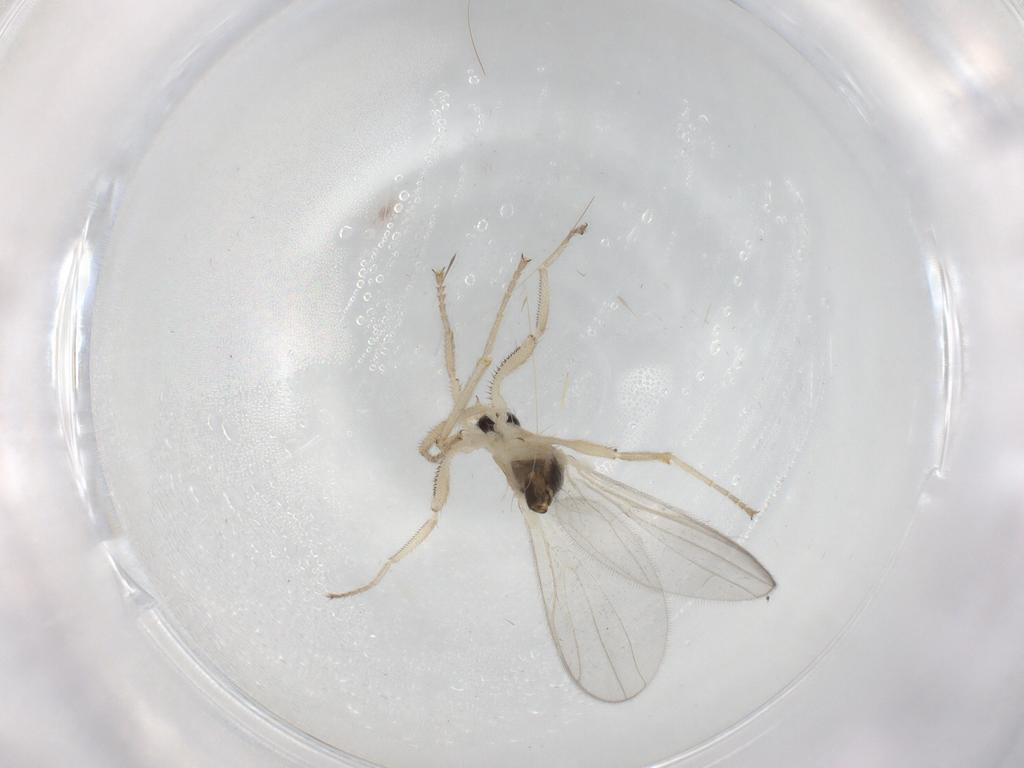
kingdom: Animalia
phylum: Arthropoda
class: Insecta
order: Diptera
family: Hybotidae
